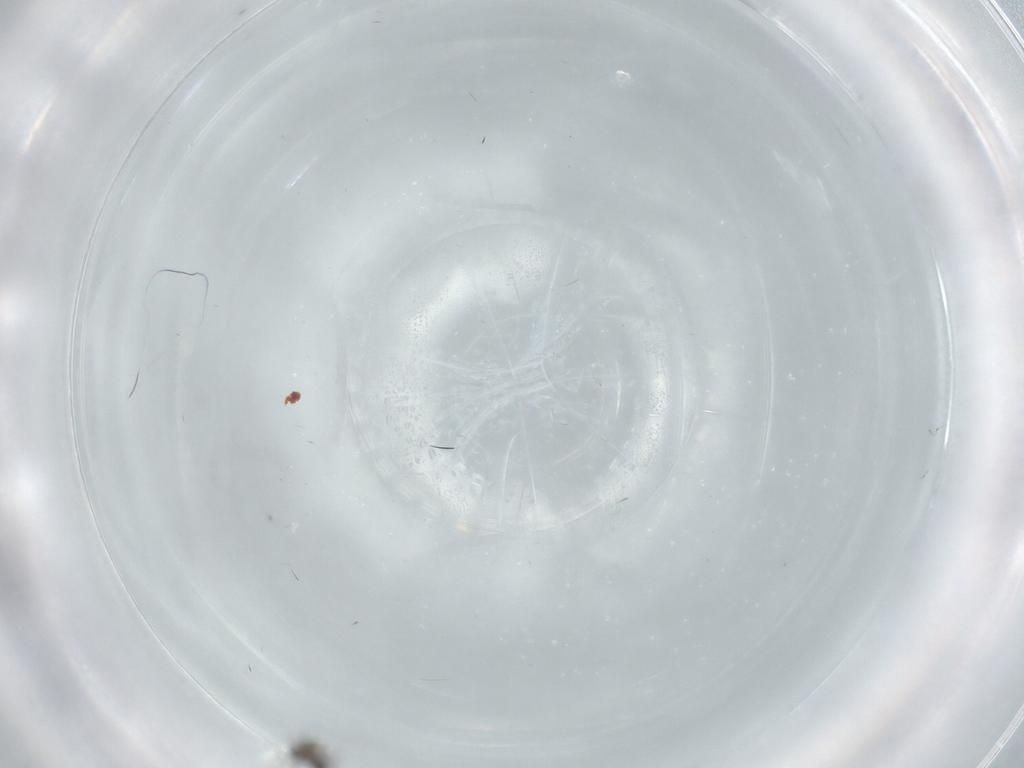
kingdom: Animalia
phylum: Arthropoda
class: Insecta
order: Diptera
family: Cecidomyiidae
